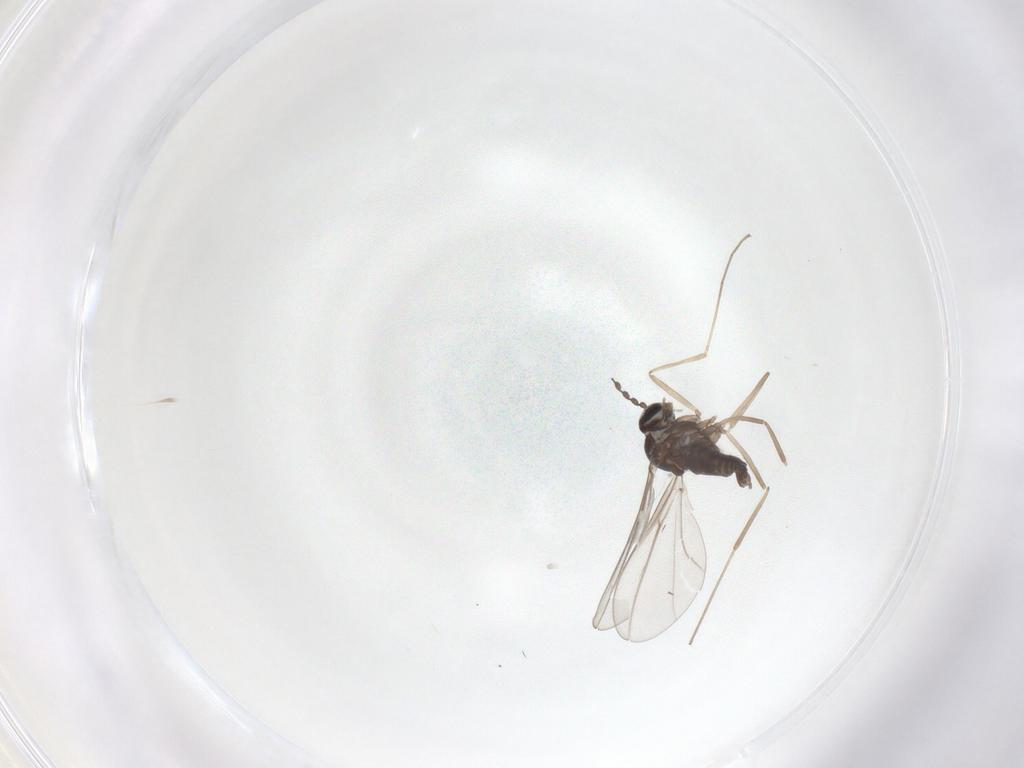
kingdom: Animalia
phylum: Arthropoda
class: Insecta
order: Diptera
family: Cecidomyiidae
